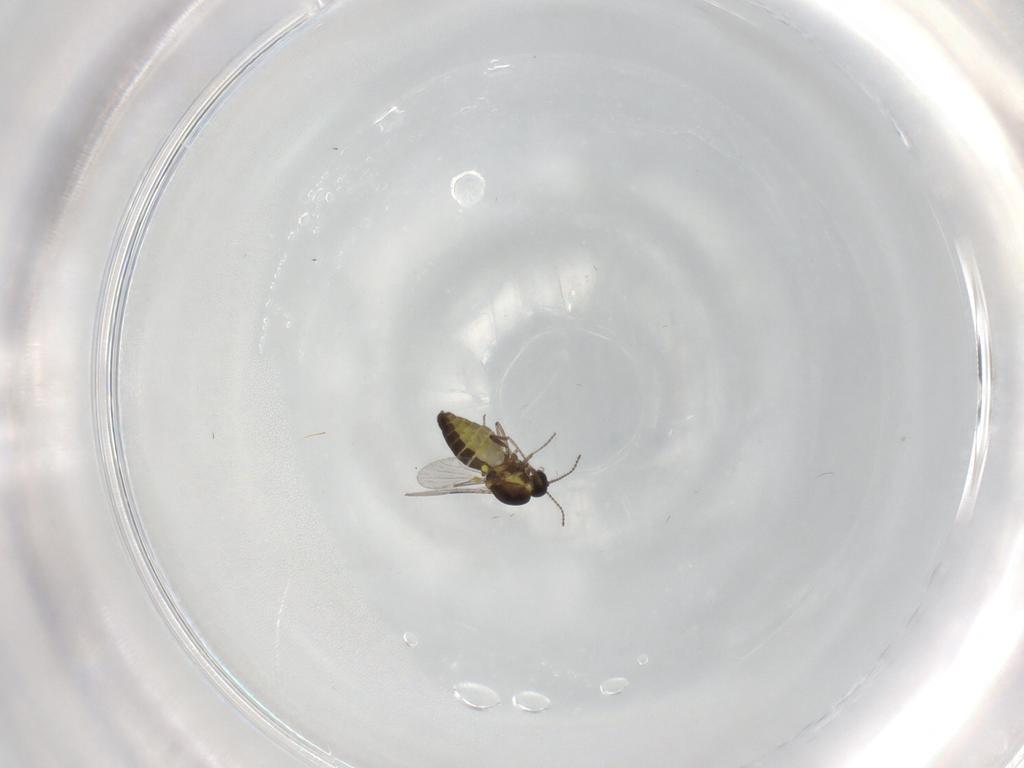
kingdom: Animalia
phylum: Arthropoda
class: Insecta
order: Diptera
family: Ceratopogonidae
